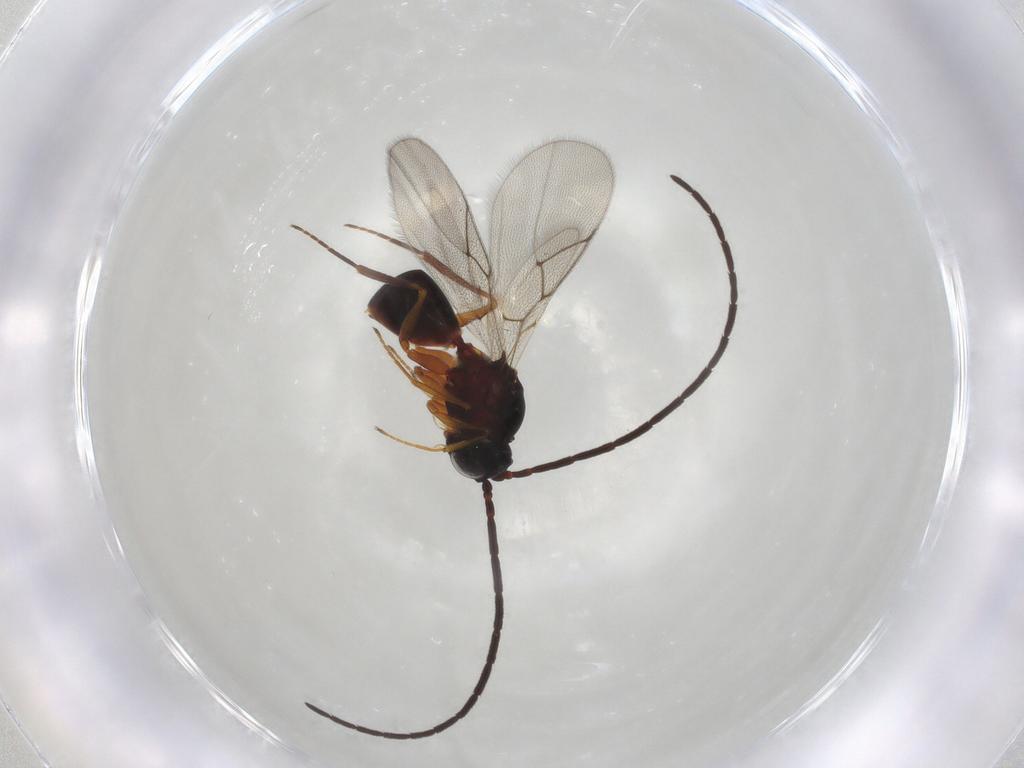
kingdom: Animalia
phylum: Arthropoda
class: Insecta
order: Hymenoptera
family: Figitidae
